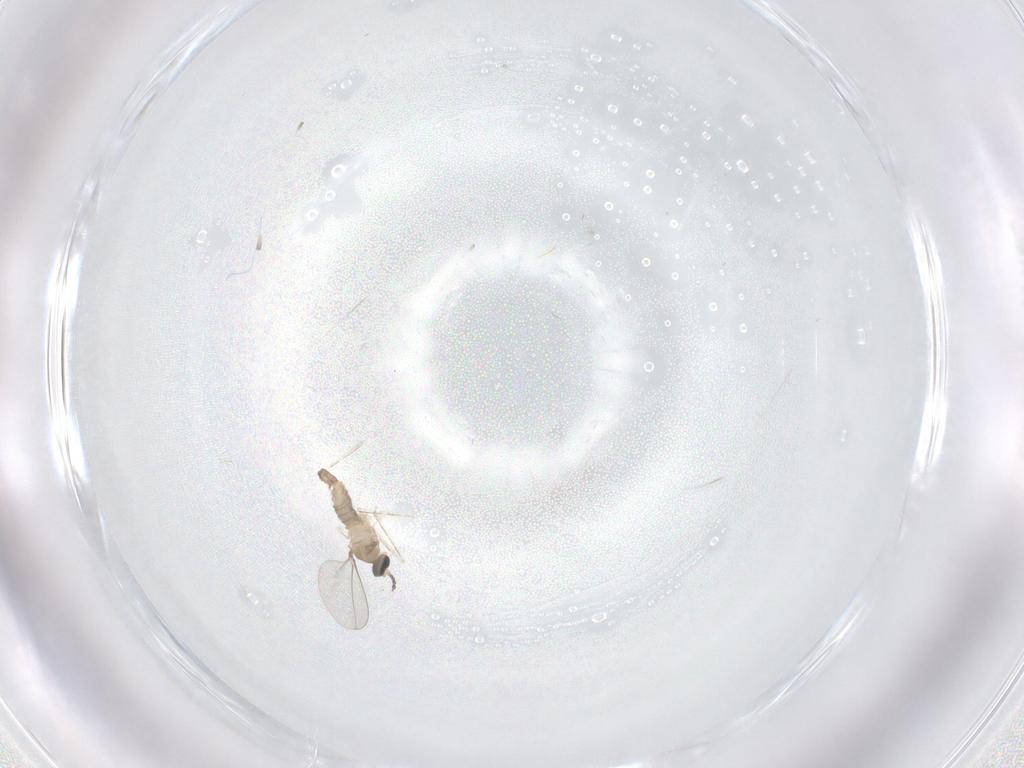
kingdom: Animalia
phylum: Arthropoda
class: Insecta
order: Diptera
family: Cecidomyiidae
